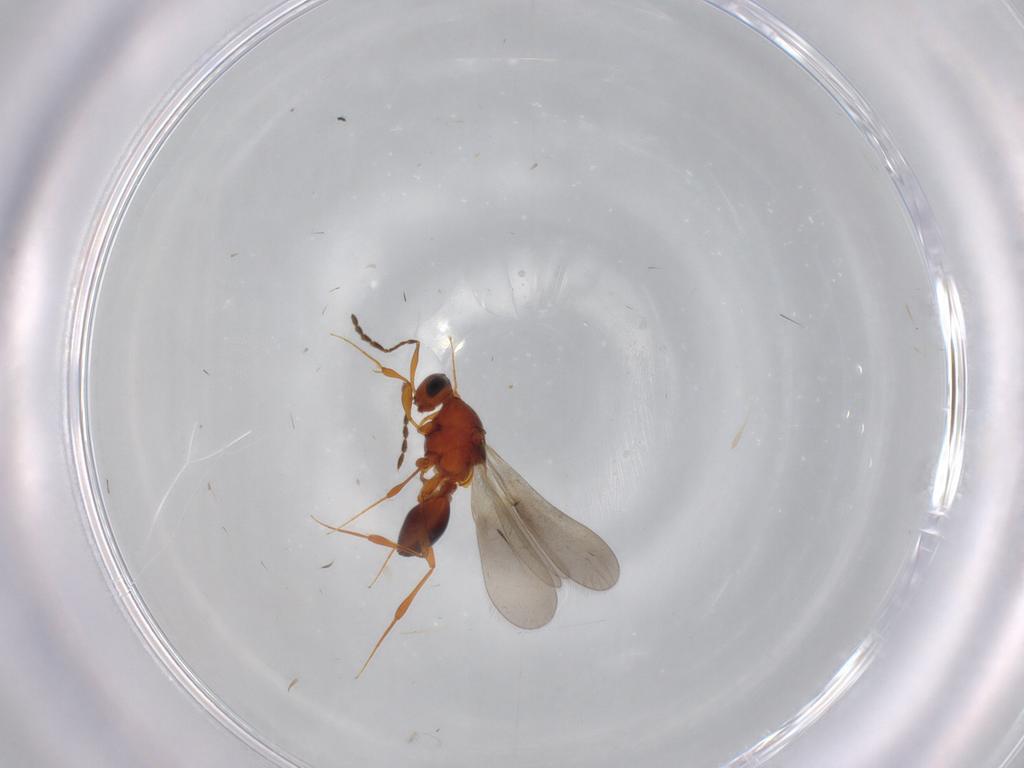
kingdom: Animalia
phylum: Arthropoda
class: Insecta
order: Hymenoptera
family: Platygastridae
